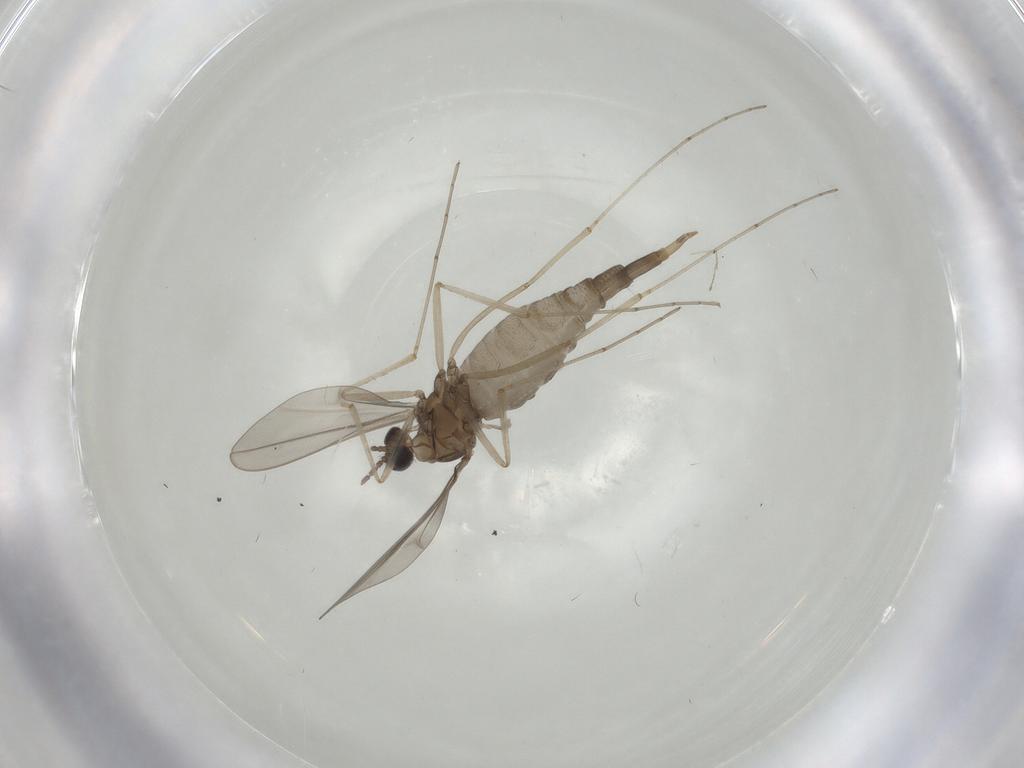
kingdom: Animalia
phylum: Arthropoda
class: Insecta
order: Diptera
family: Cecidomyiidae
